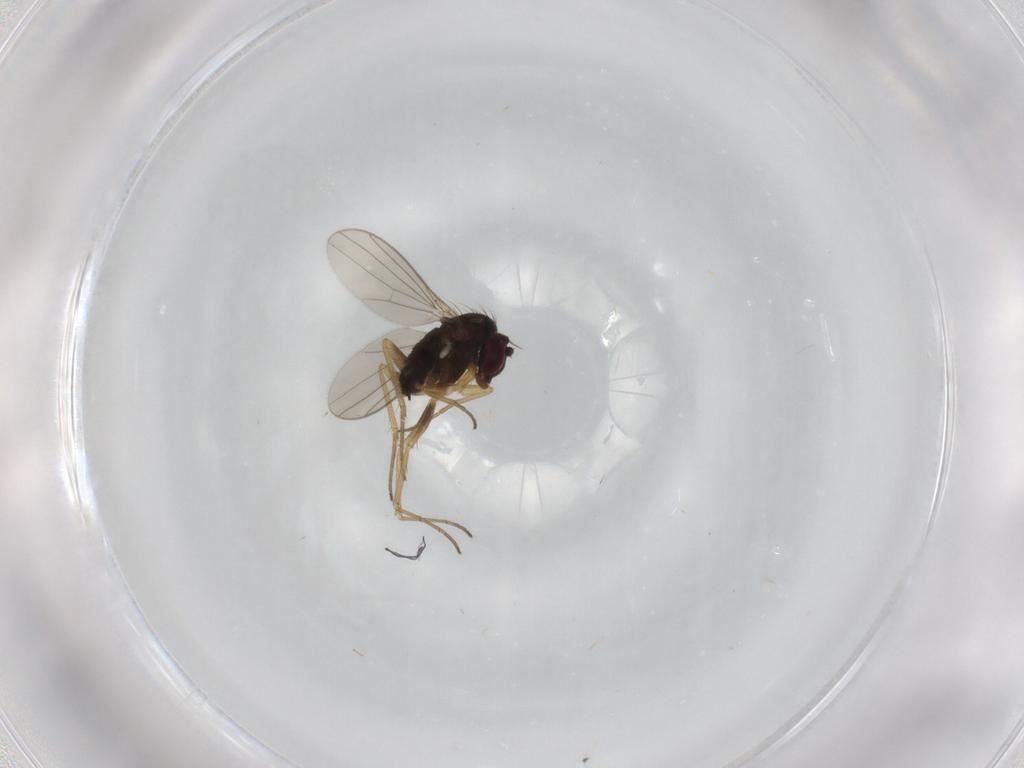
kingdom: Animalia
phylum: Arthropoda
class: Insecta
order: Diptera
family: Dolichopodidae
